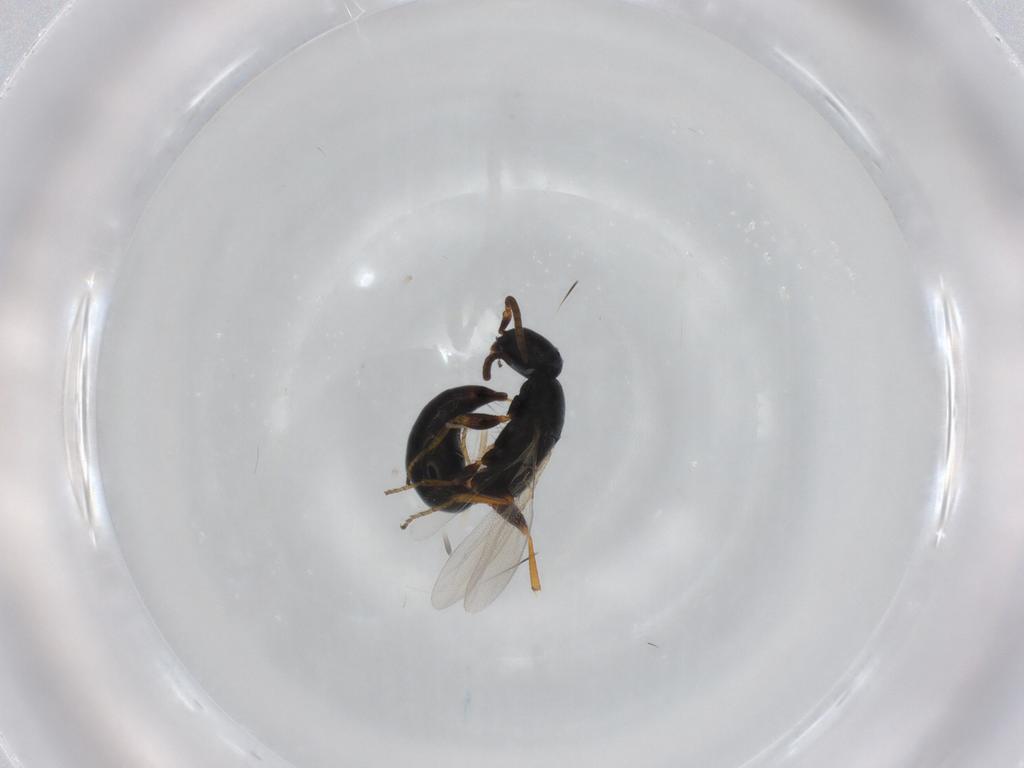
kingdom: Animalia
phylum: Arthropoda
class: Insecta
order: Hymenoptera
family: Bethylidae
